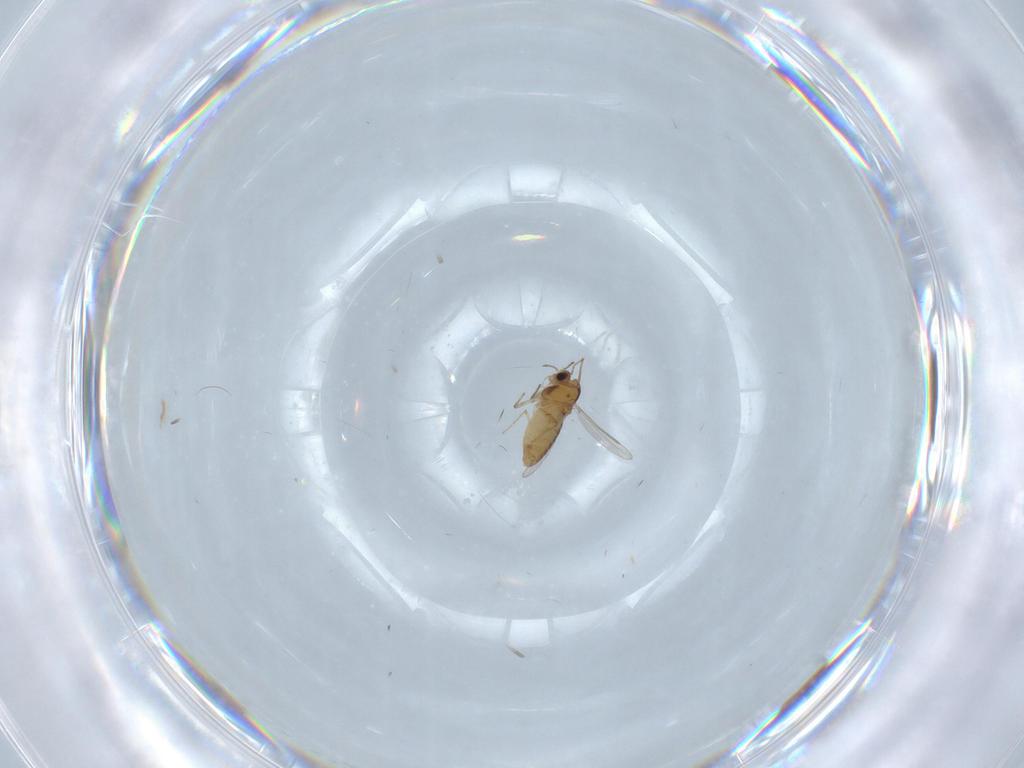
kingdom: Animalia
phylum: Arthropoda
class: Insecta
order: Diptera
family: Chironomidae
